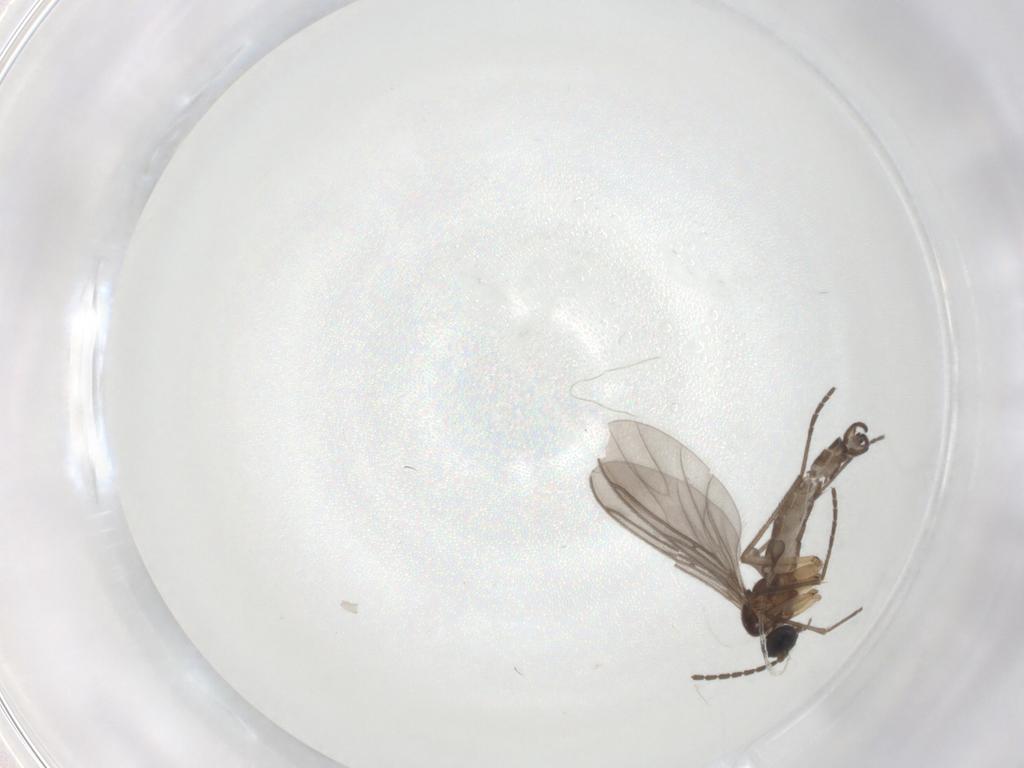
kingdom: Animalia
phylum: Arthropoda
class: Insecta
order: Diptera
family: Sciaridae
